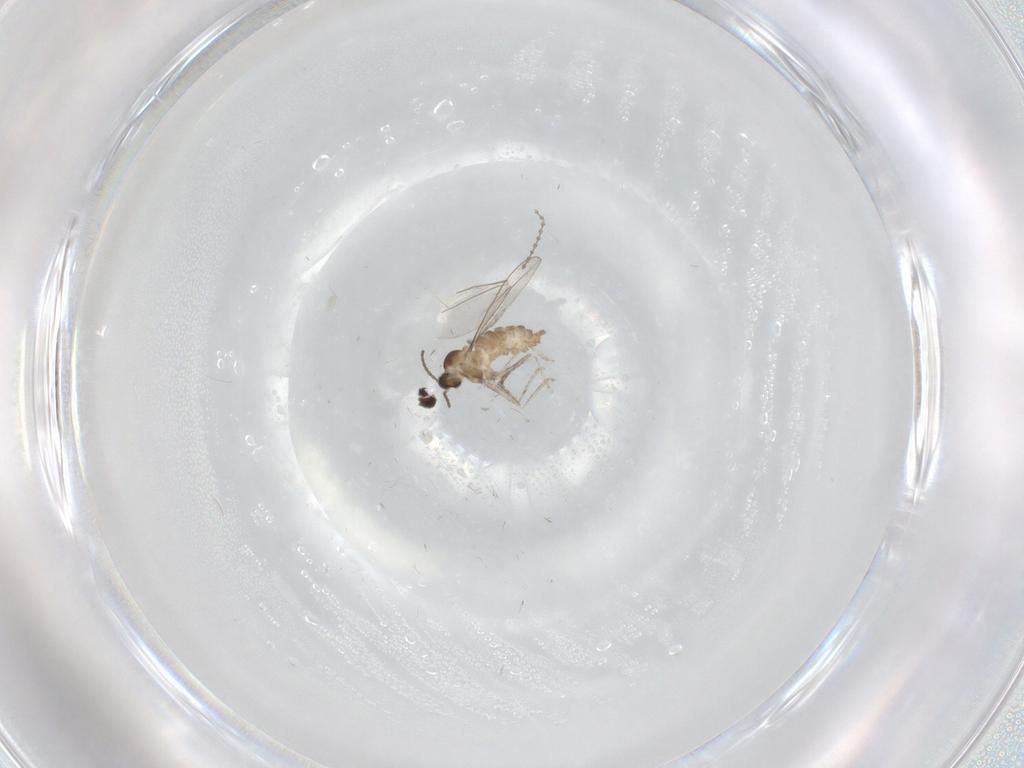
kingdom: Animalia
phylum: Arthropoda
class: Insecta
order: Diptera
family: Cecidomyiidae
